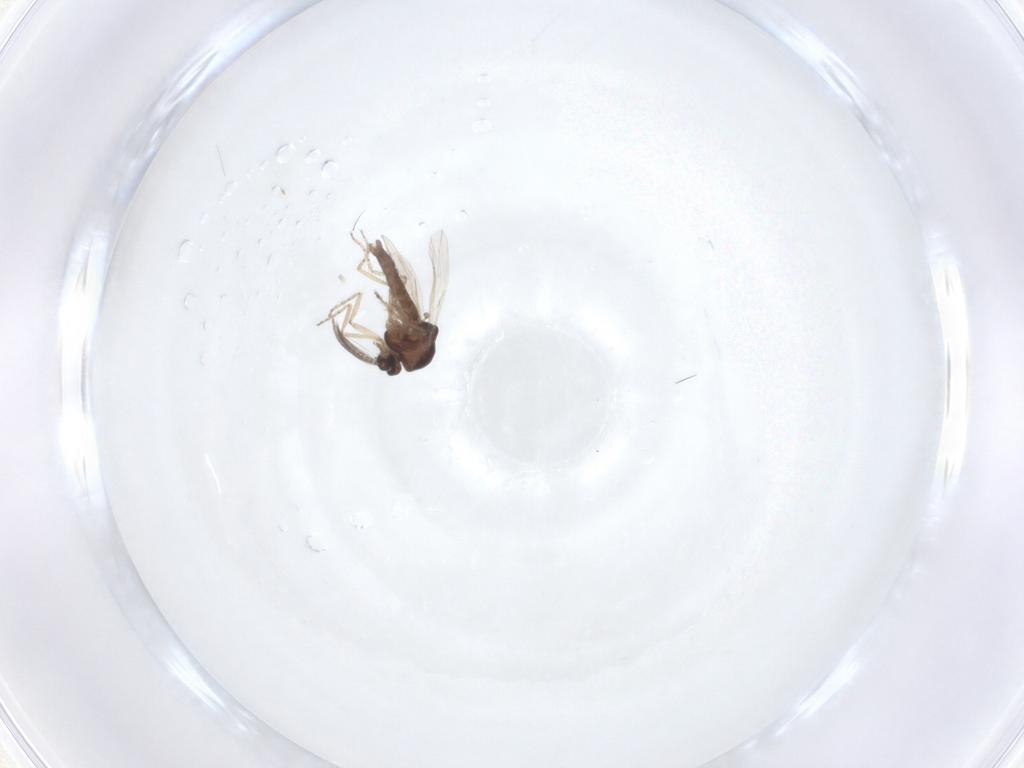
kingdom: Animalia
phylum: Arthropoda
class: Insecta
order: Diptera
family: Ceratopogonidae
